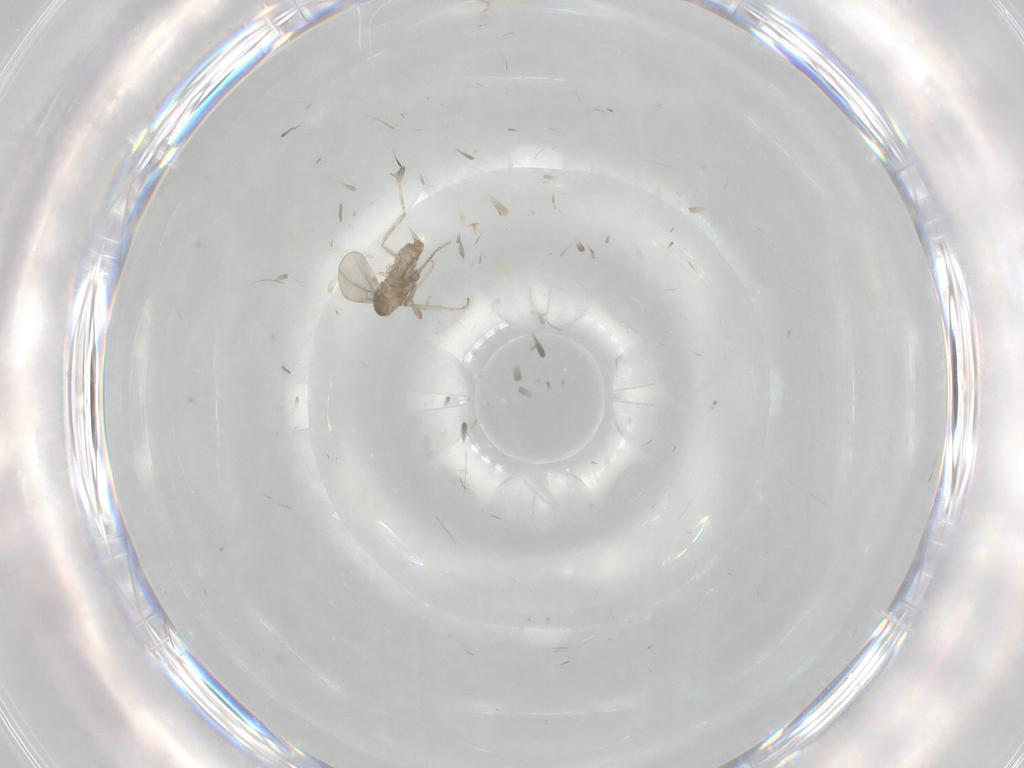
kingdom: Animalia
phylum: Arthropoda
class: Insecta
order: Diptera
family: Cecidomyiidae
